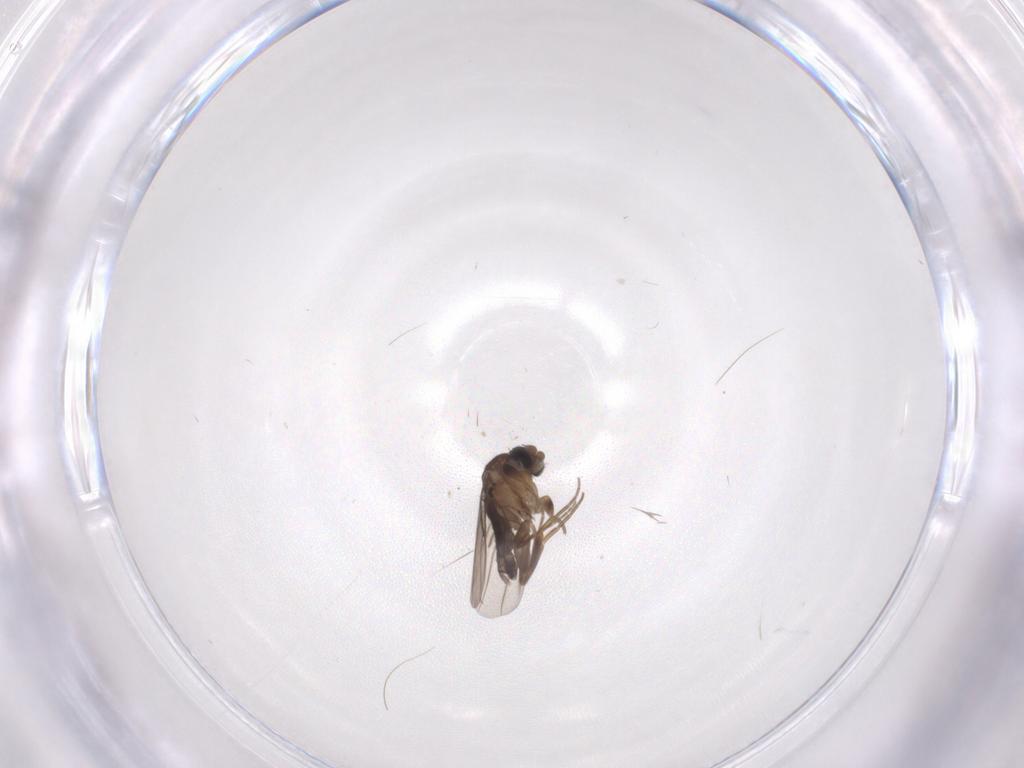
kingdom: Animalia
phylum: Arthropoda
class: Insecta
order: Diptera
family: Phoridae
